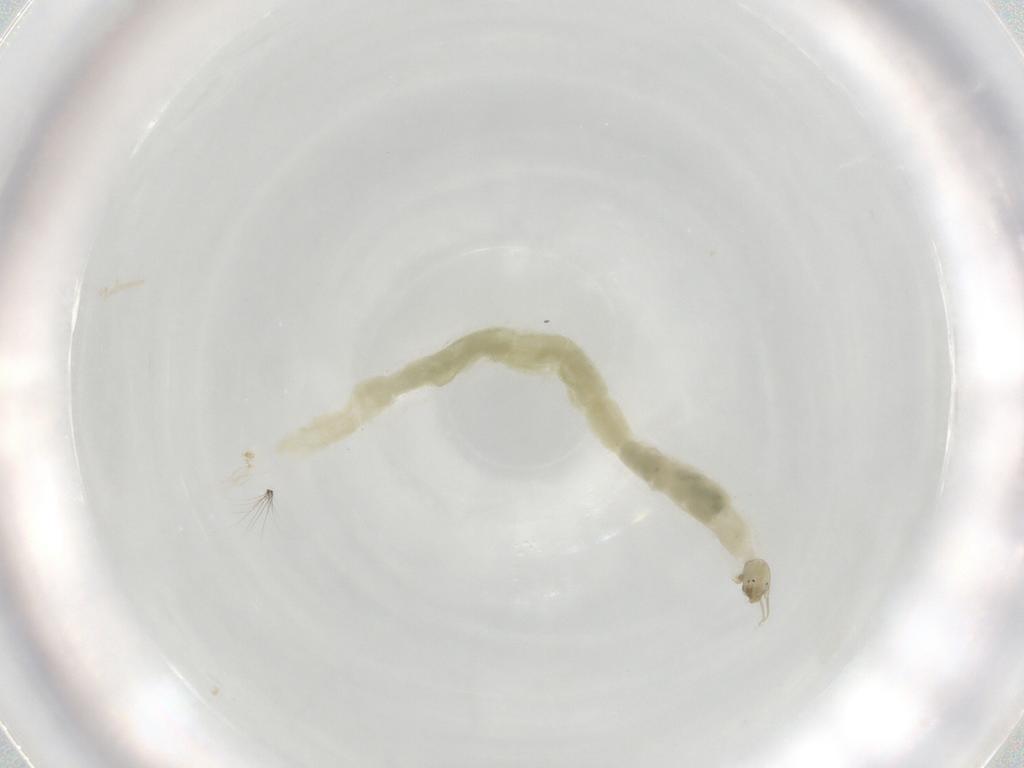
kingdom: Animalia
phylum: Arthropoda
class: Insecta
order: Diptera
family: Chironomidae
